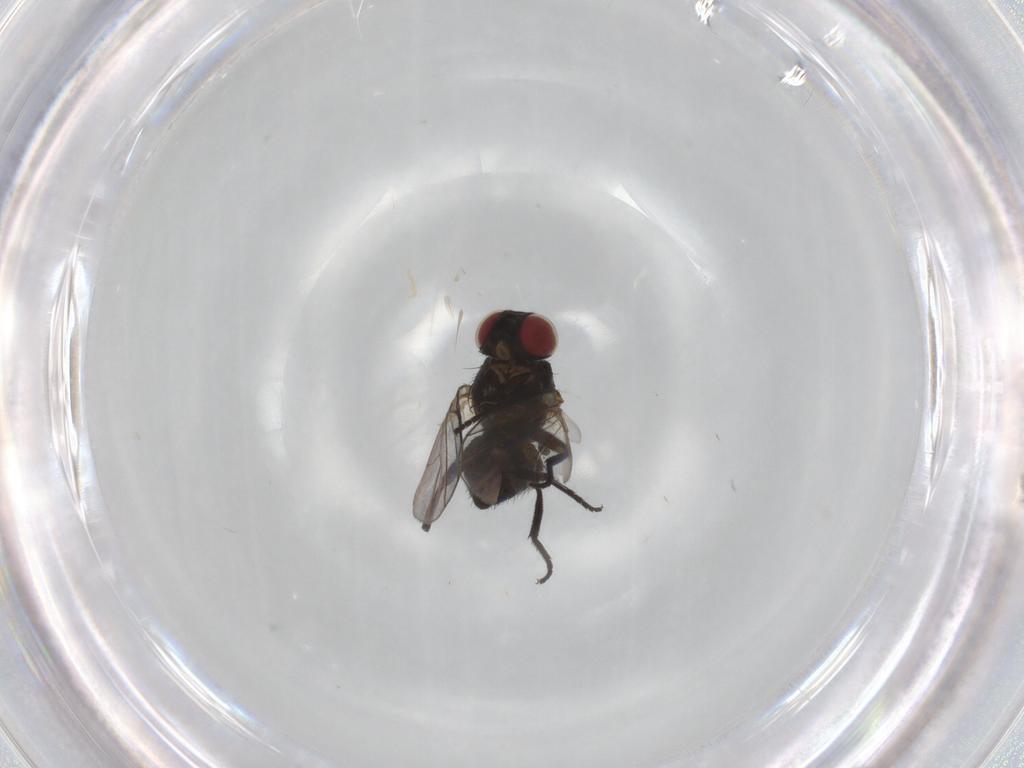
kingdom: Animalia
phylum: Arthropoda
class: Insecta
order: Diptera
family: Agromyzidae
